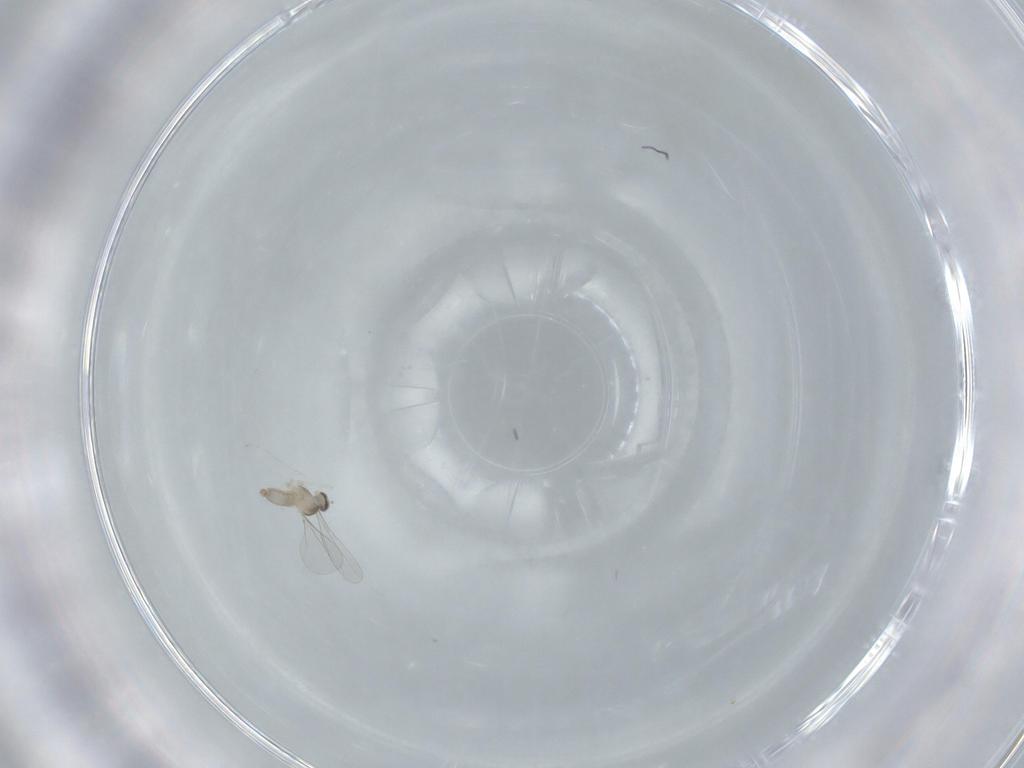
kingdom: Animalia
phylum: Arthropoda
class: Insecta
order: Diptera
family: Cecidomyiidae
